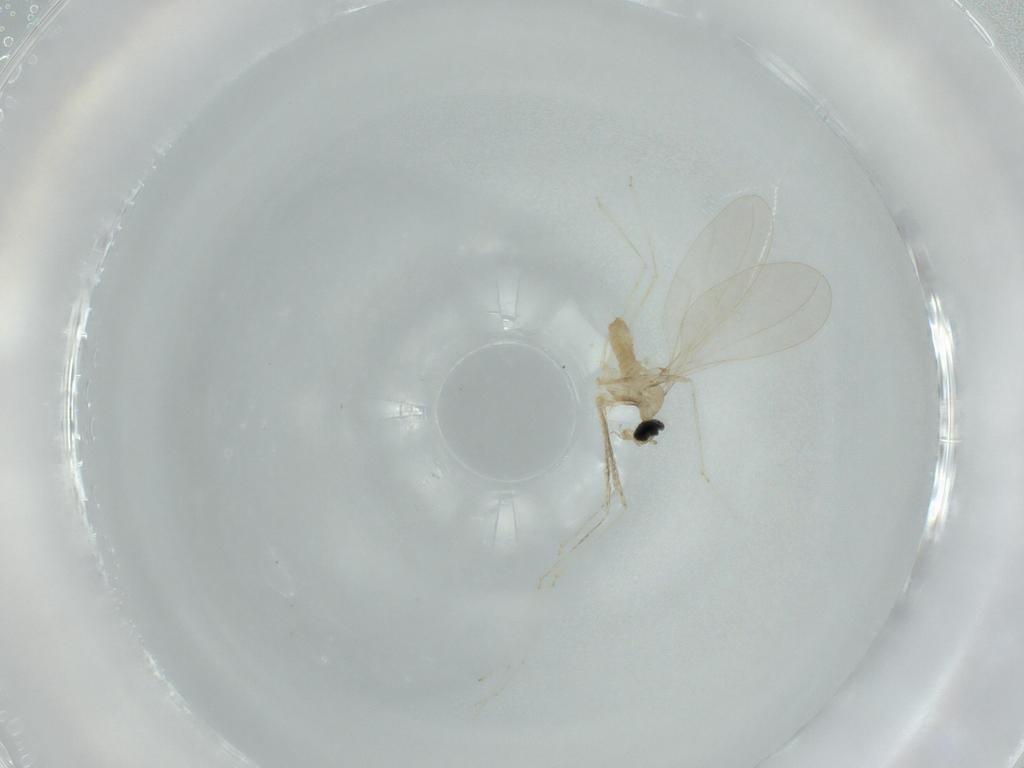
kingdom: Animalia
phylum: Arthropoda
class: Insecta
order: Diptera
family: Cecidomyiidae
